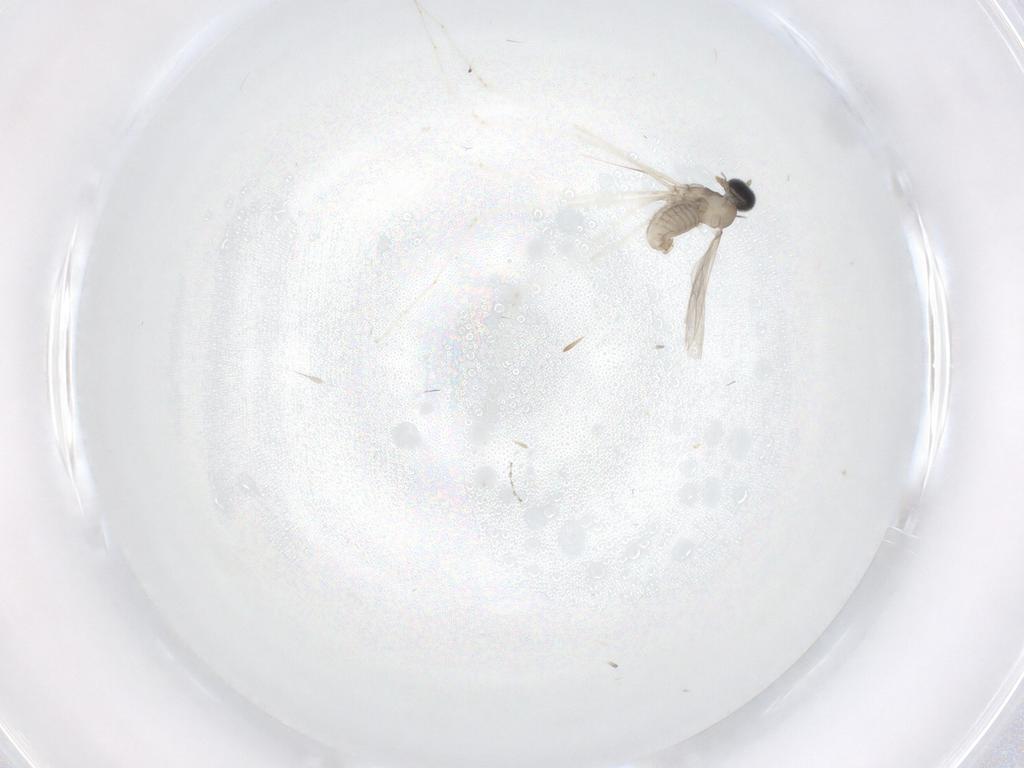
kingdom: Animalia
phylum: Arthropoda
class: Insecta
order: Diptera
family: Cecidomyiidae
